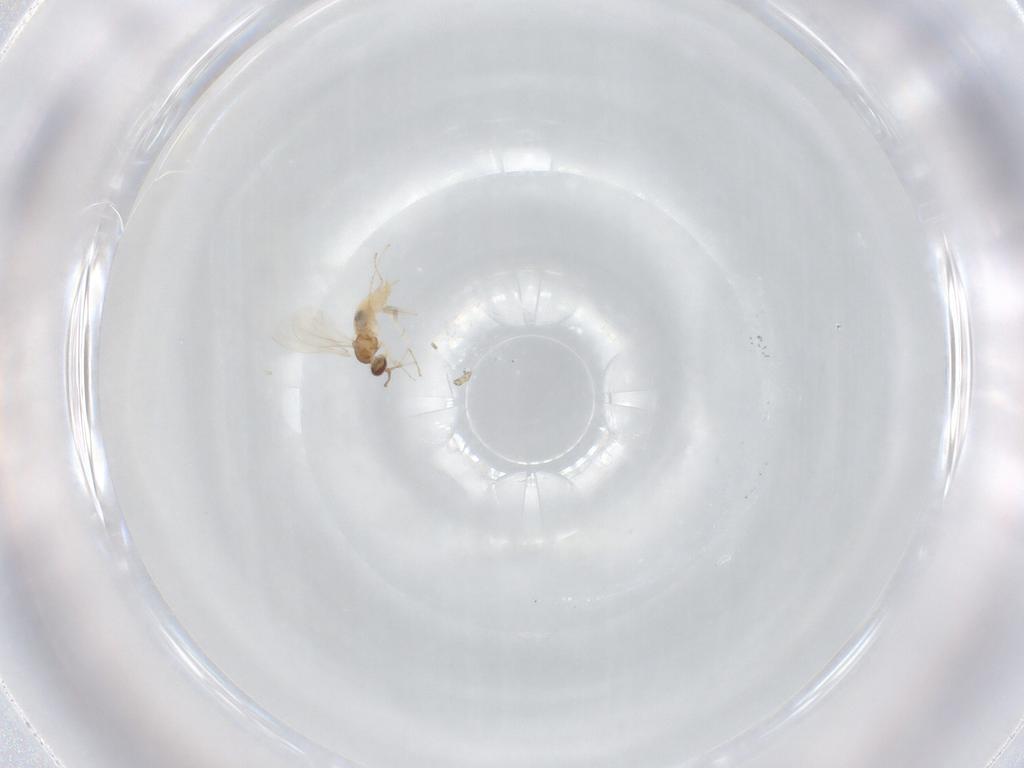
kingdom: Animalia
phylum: Arthropoda
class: Insecta
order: Diptera
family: Cecidomyiidae
